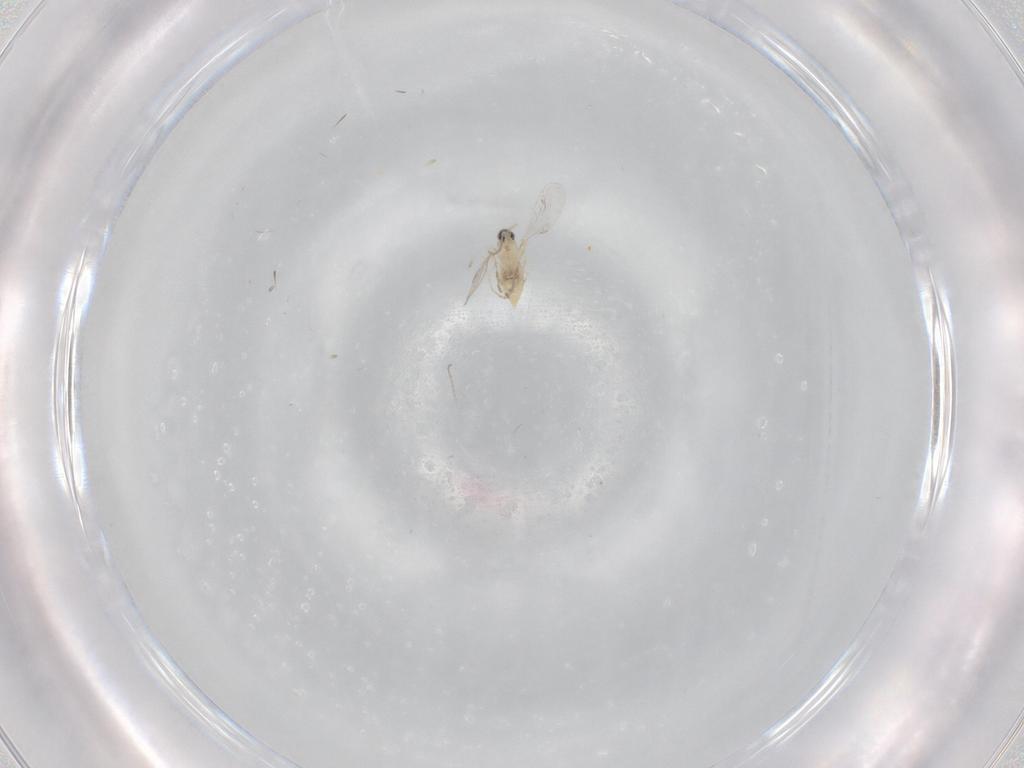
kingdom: Animalia
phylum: Arthropoda
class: Insecta
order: Diptera
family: Cecidomyiidae
